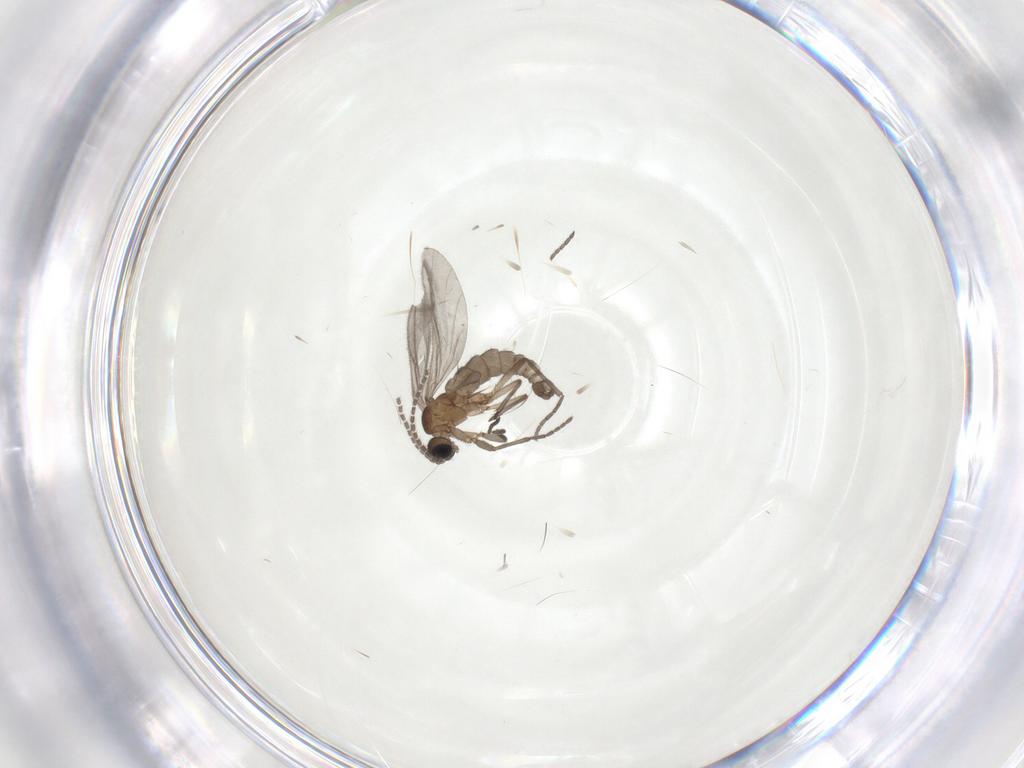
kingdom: Animalia
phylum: Arthropoda
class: Insecta
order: Diptera
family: Sciaridae
